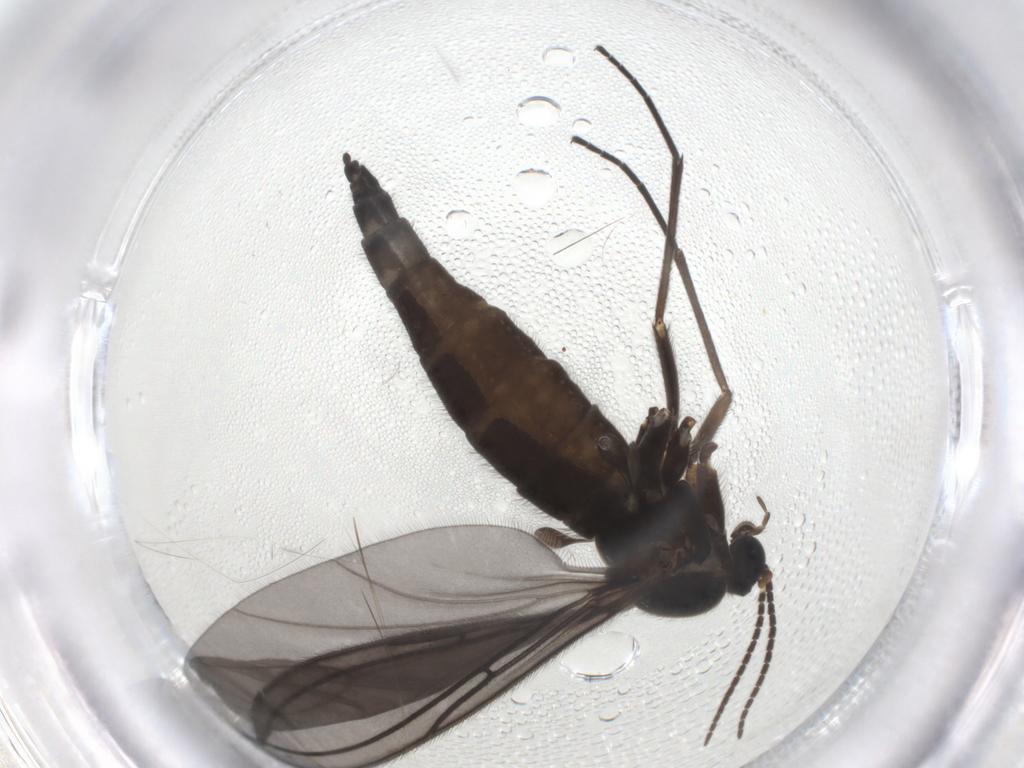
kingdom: Animalia
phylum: Arthropoda
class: Insecta
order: Diptera
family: Sciaridae
